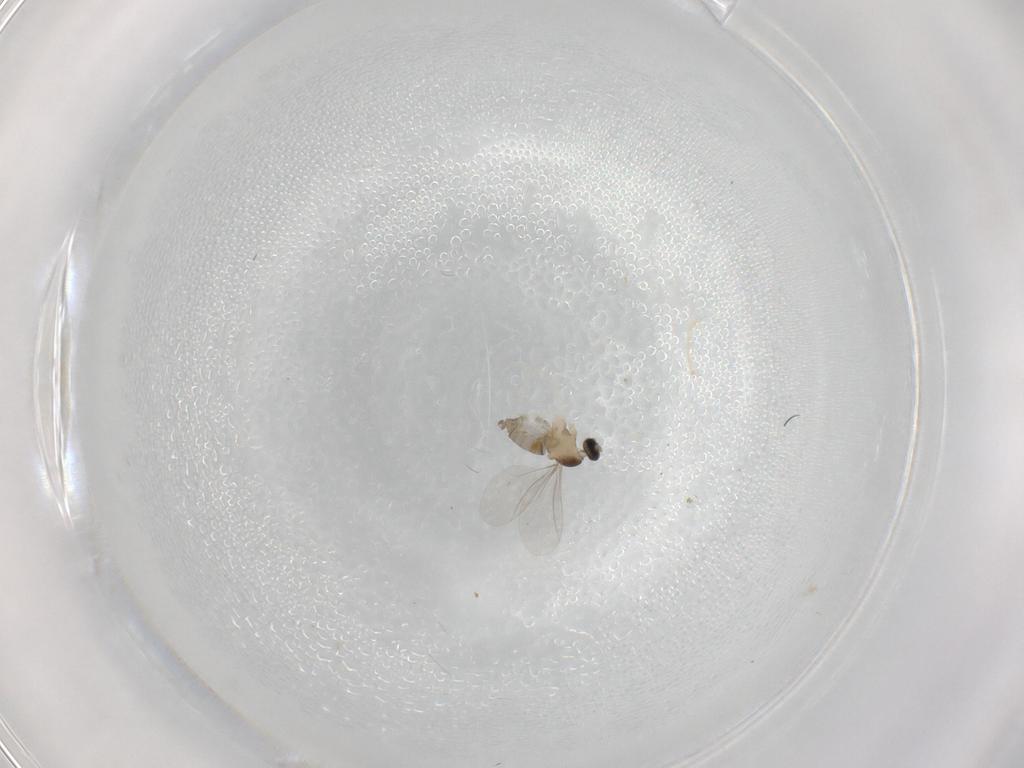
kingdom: Animalia
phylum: Arthropoda
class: Insecta
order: Diptera
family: Cecidomyiidae
